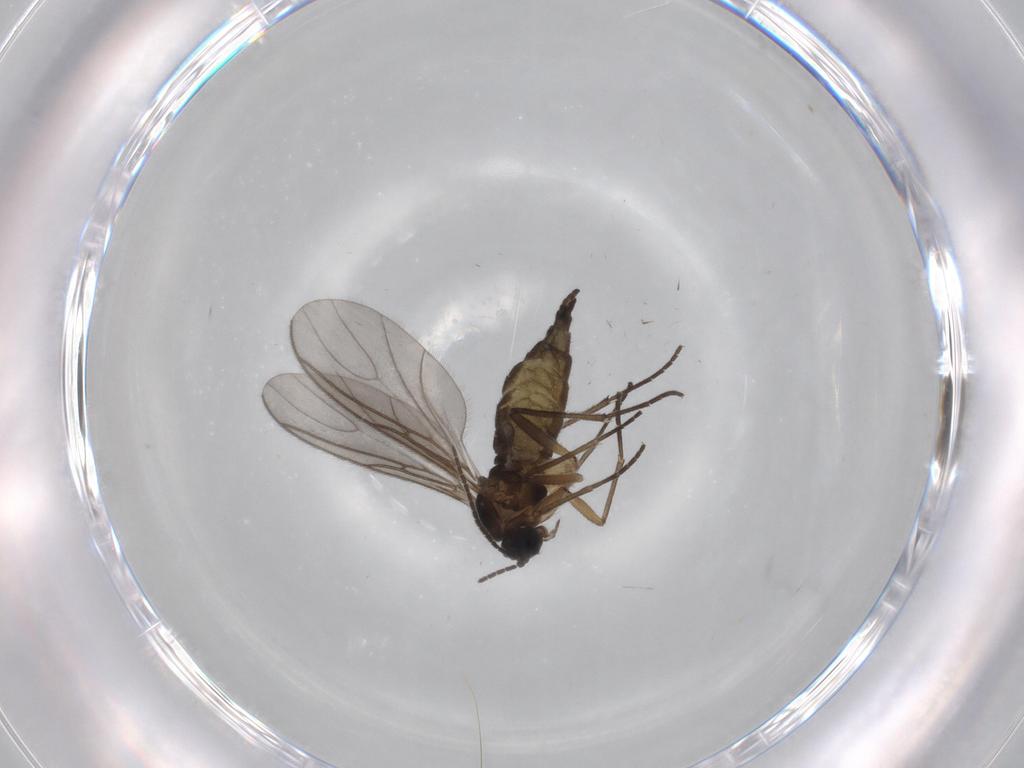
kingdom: Animalia
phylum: Arthropoda
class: Insecta
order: Diptera
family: Sciaridae
